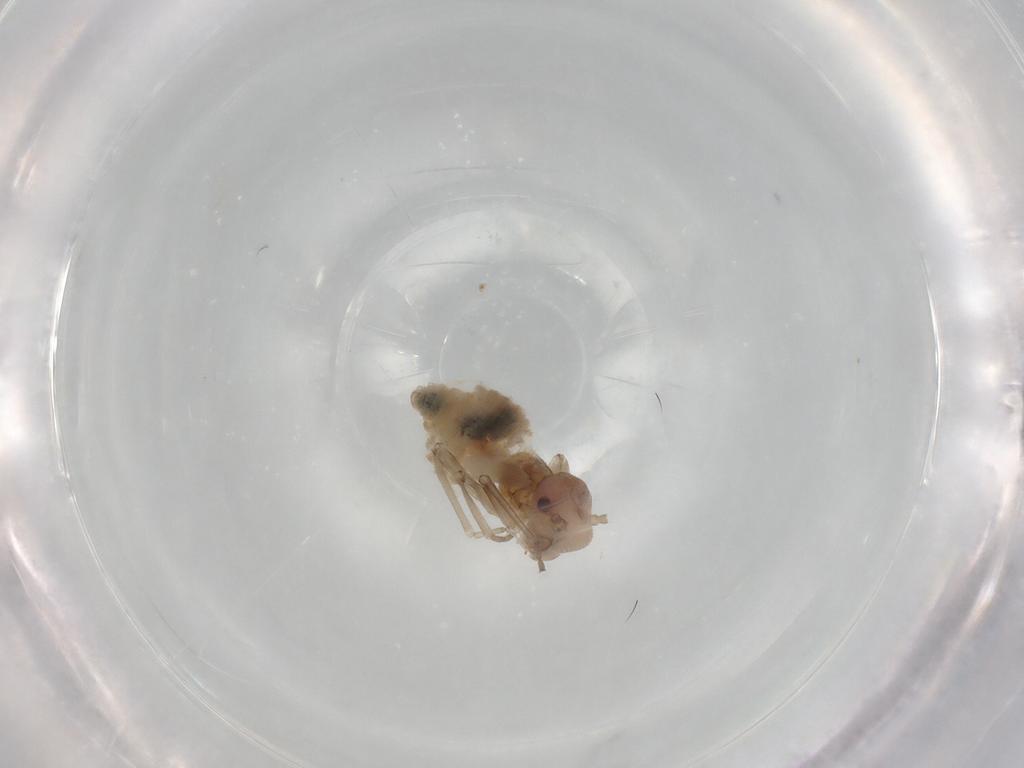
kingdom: Animalia
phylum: Arthropoda
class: Insecta
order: Psocodea
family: Stenopsocidae
